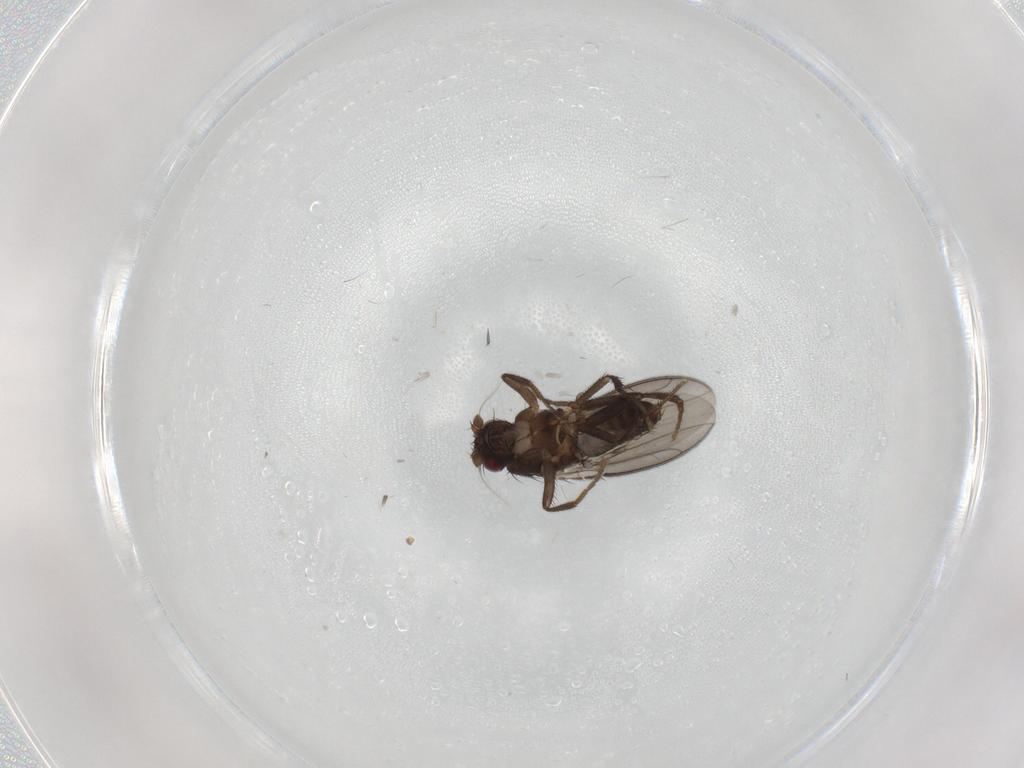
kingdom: Animalia
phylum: Arthropoda
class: Insecta
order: Diptera
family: Sphaeroceridae
